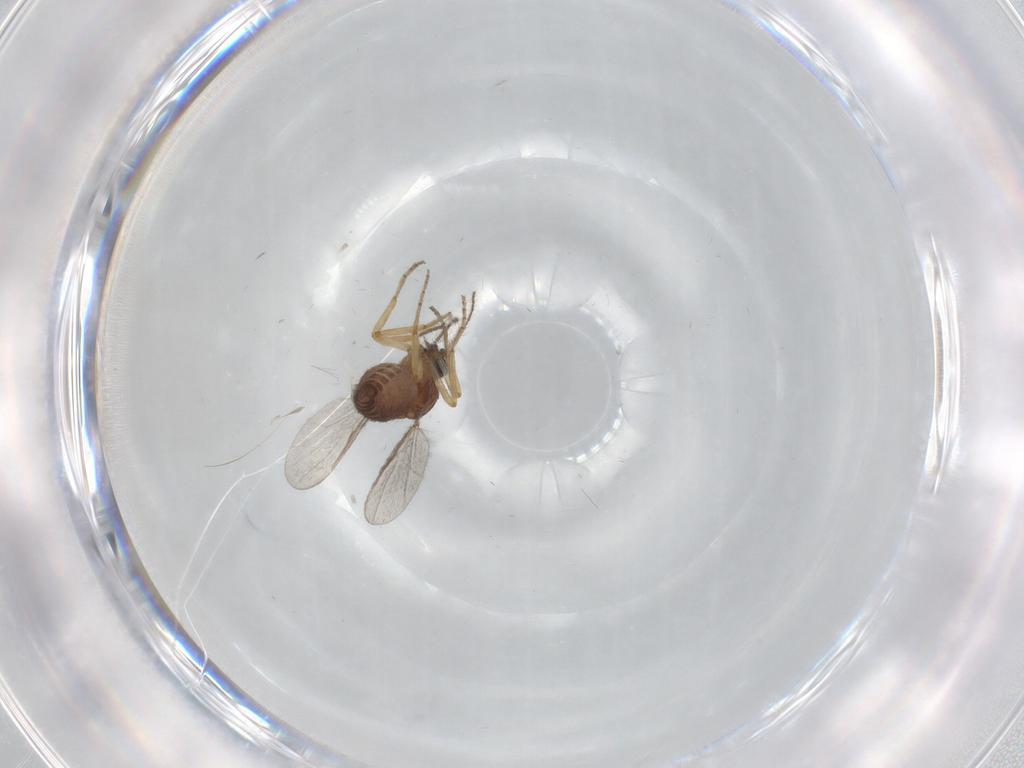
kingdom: Animalia
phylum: Arthropoda
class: Insecta
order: Diptera
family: Ceratopogonidae
